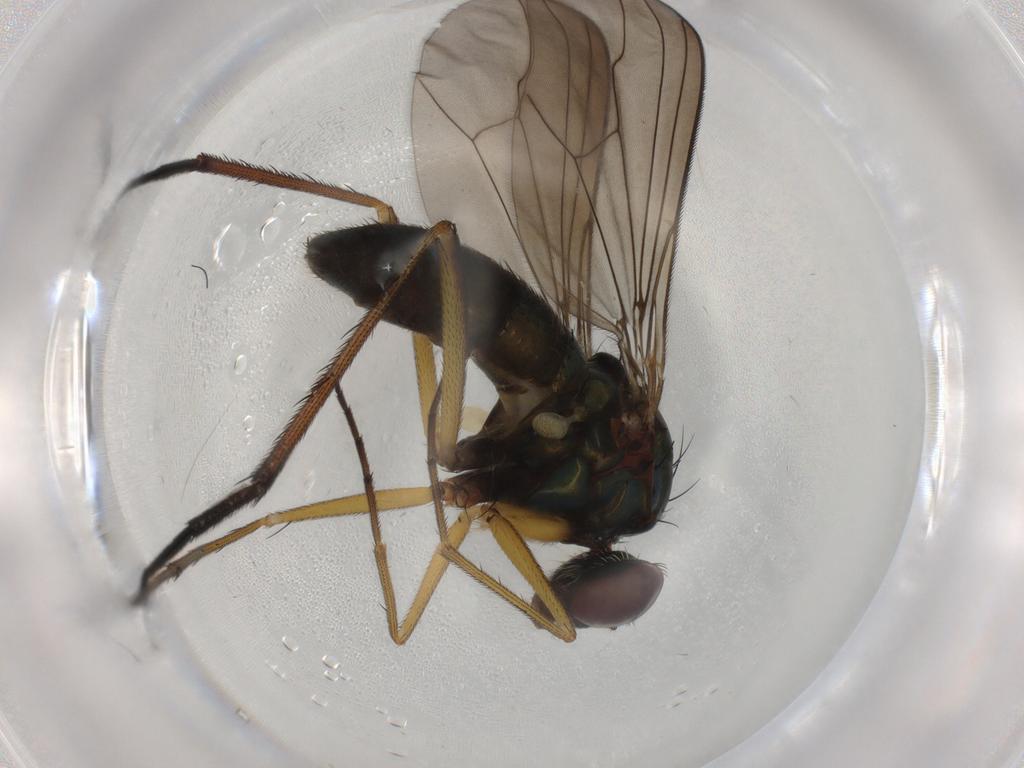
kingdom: Animalia
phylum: Arthropoda
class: Insecta
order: Diptera
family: Dolichopodidae
